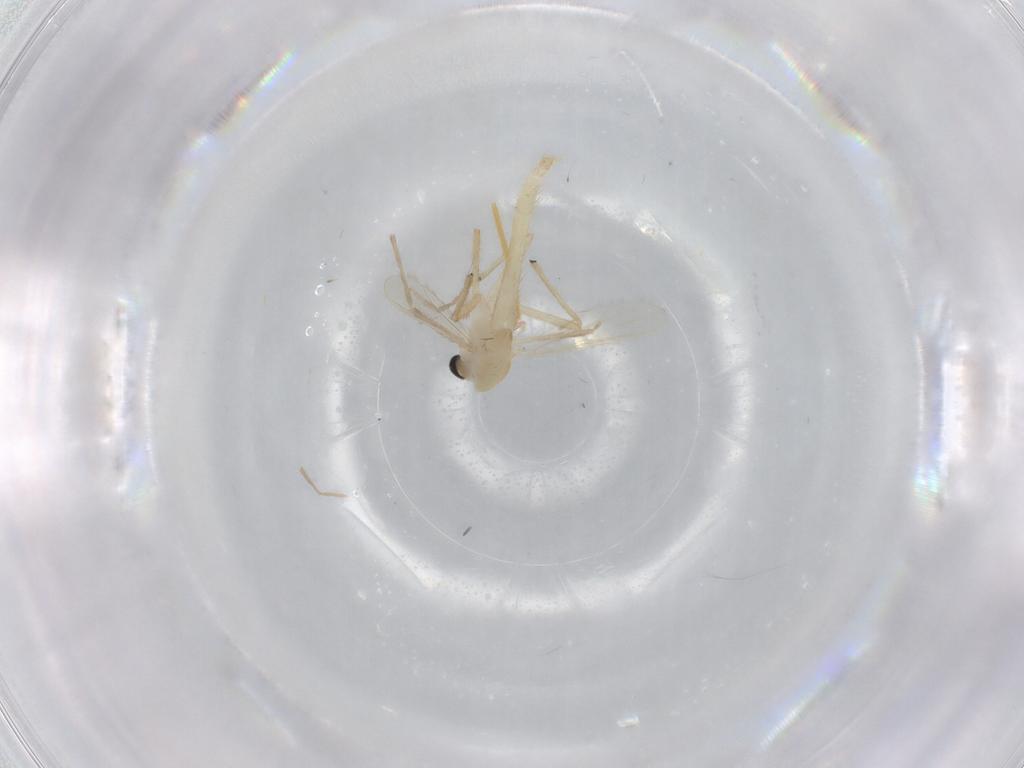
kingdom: Animalia
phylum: Arthropoda
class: Insecta
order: Diptera
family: Chironomidae
